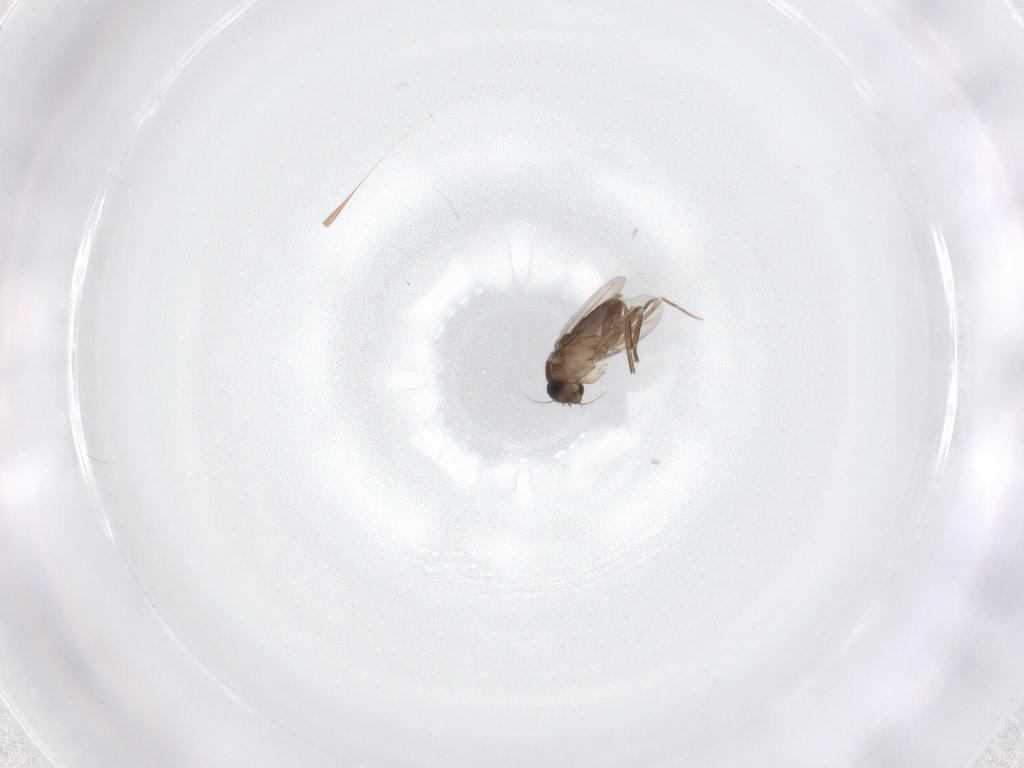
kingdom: Animalia
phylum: Arthropoda
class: Insecta
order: Diptera
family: Phoridae
